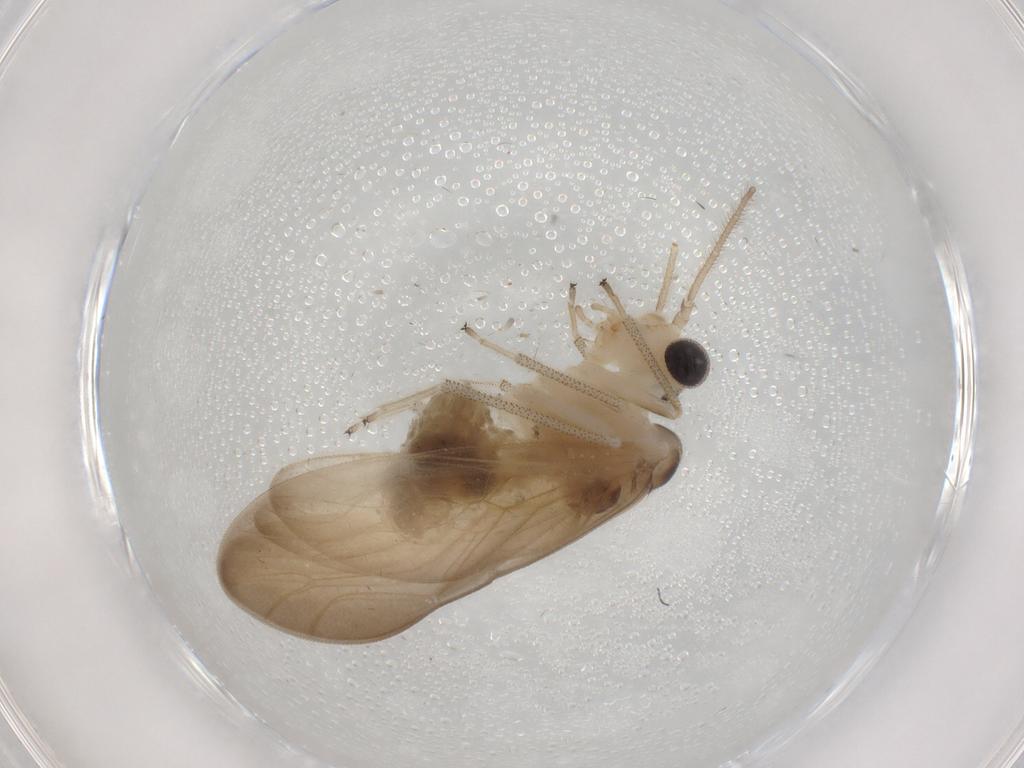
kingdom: Animalia
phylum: Arthropoda
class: Insecta
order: Psocodea
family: Amphipsocidae
